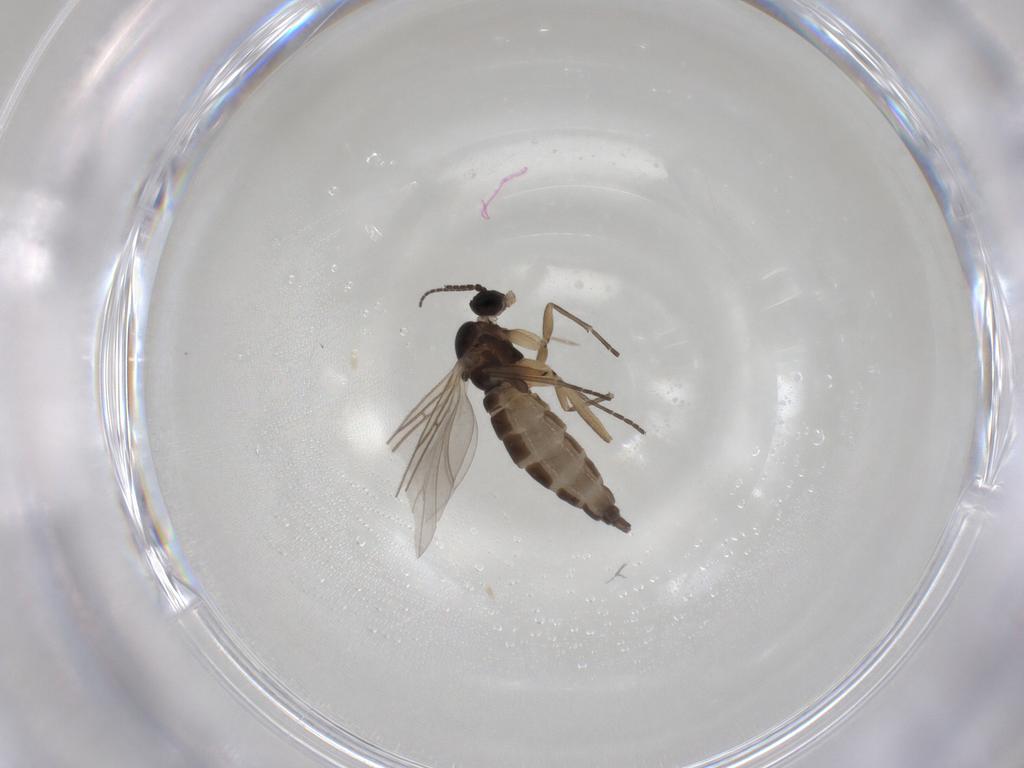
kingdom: Animalia
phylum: Arthropoda
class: Insecta
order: Diptera
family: Sciaridae
